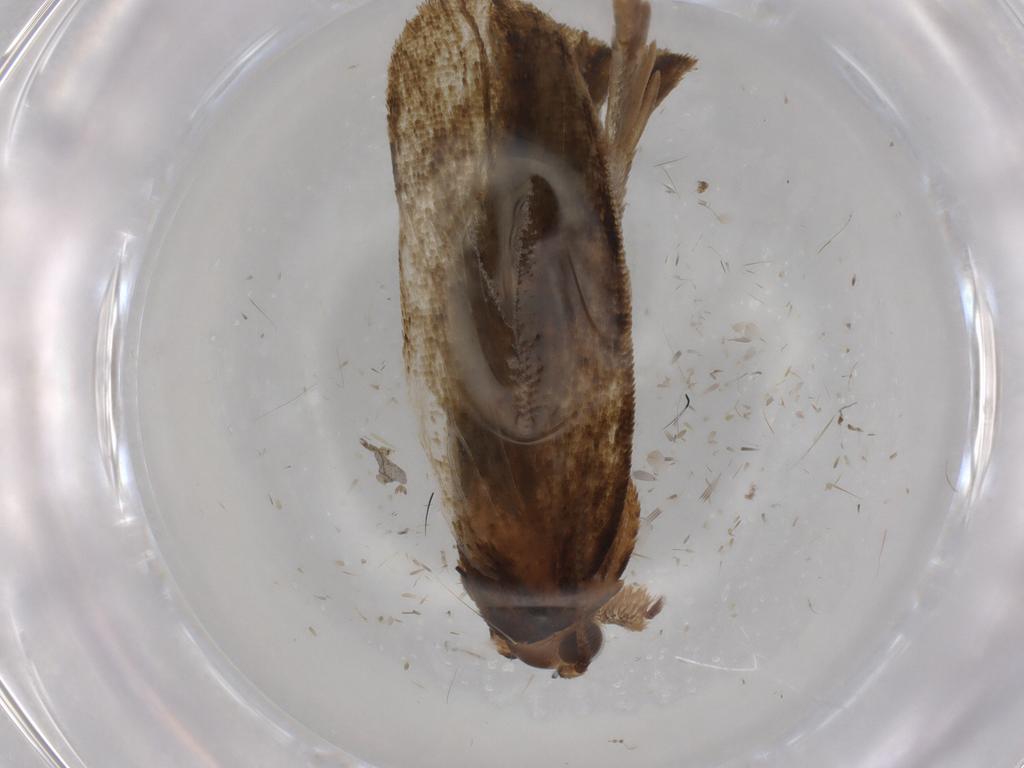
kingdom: Animalia
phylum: Arthropoda
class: Insecta
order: Lepidoptera
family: Geometridae
